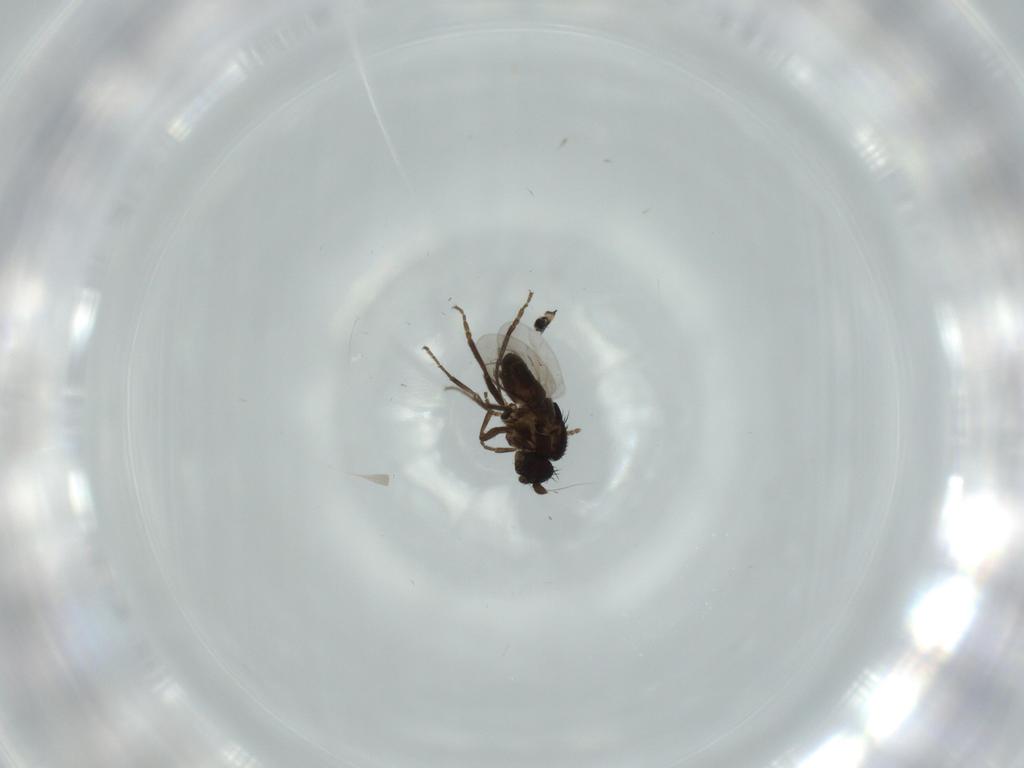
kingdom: Animalia
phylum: Arthropoda
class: Insecta
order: Diptera
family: Sphaeroceridae
